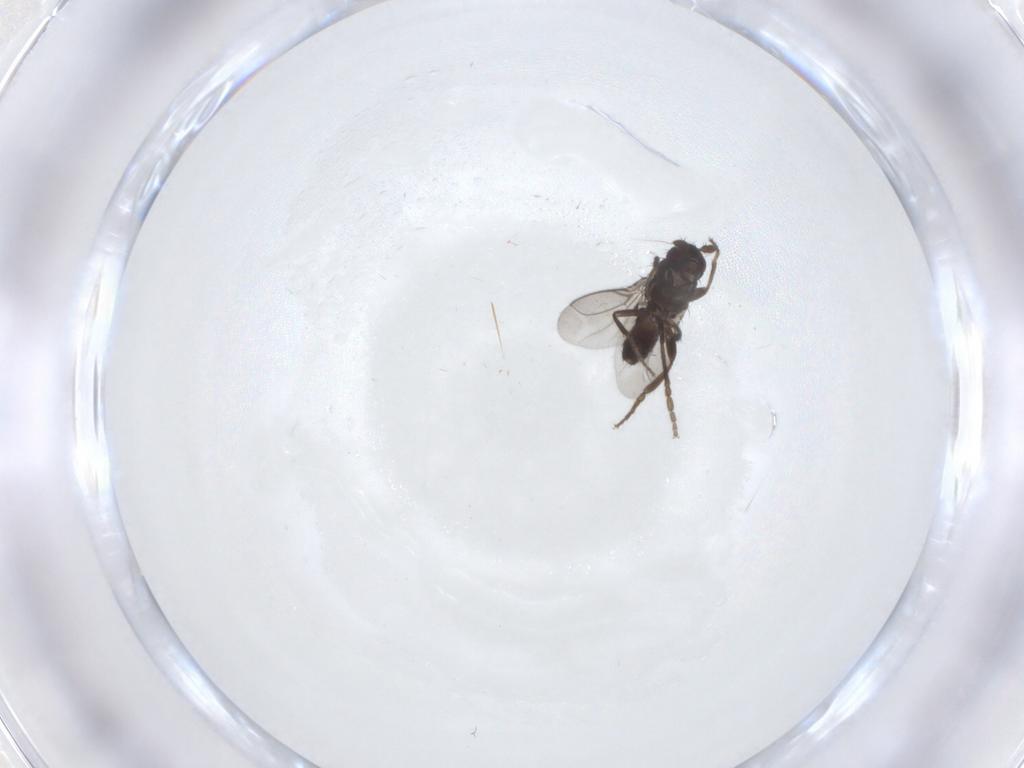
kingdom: Animalia
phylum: Arthropoda
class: Insecta
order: Diptera
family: Sphaeroceridae
